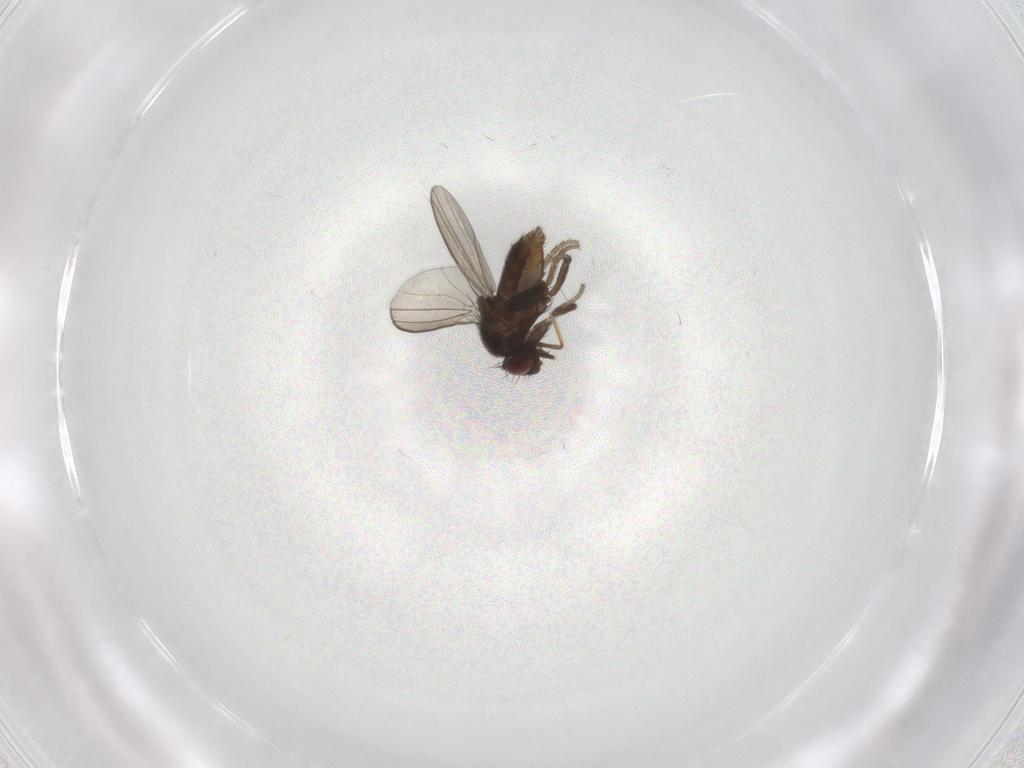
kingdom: Animalia
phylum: Arthropoda
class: Insecta
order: Diptera
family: Milichiidae
